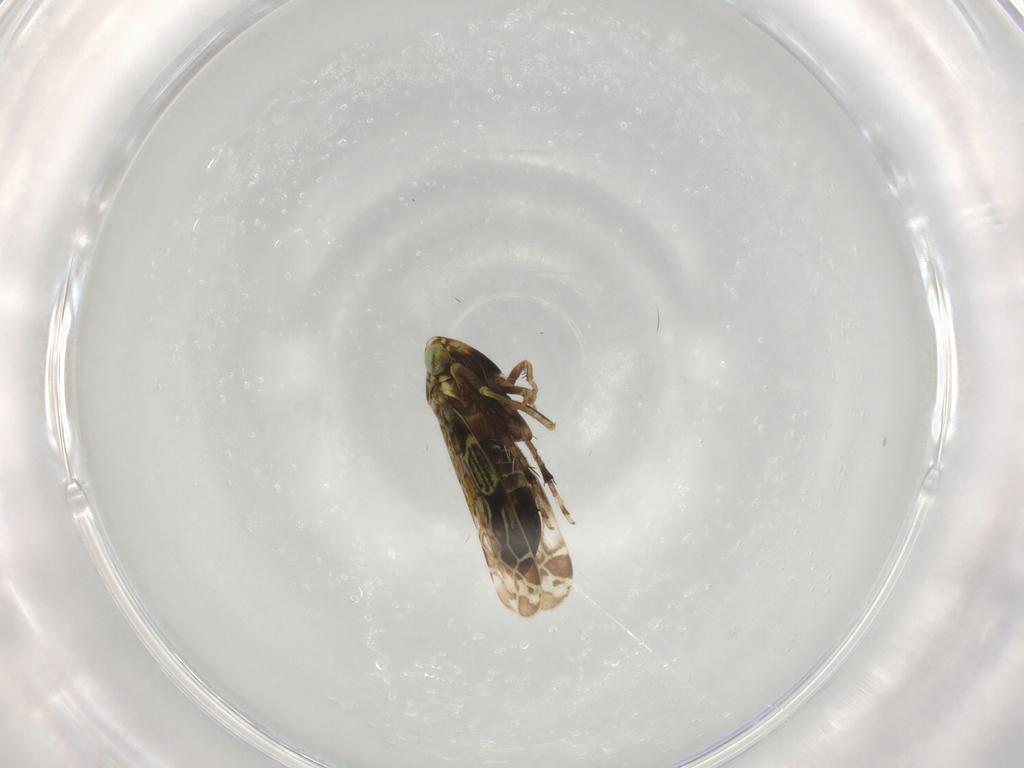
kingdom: Animalia
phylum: Arthropoda
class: Insecta
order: Hemiptera
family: Cicadellidae
